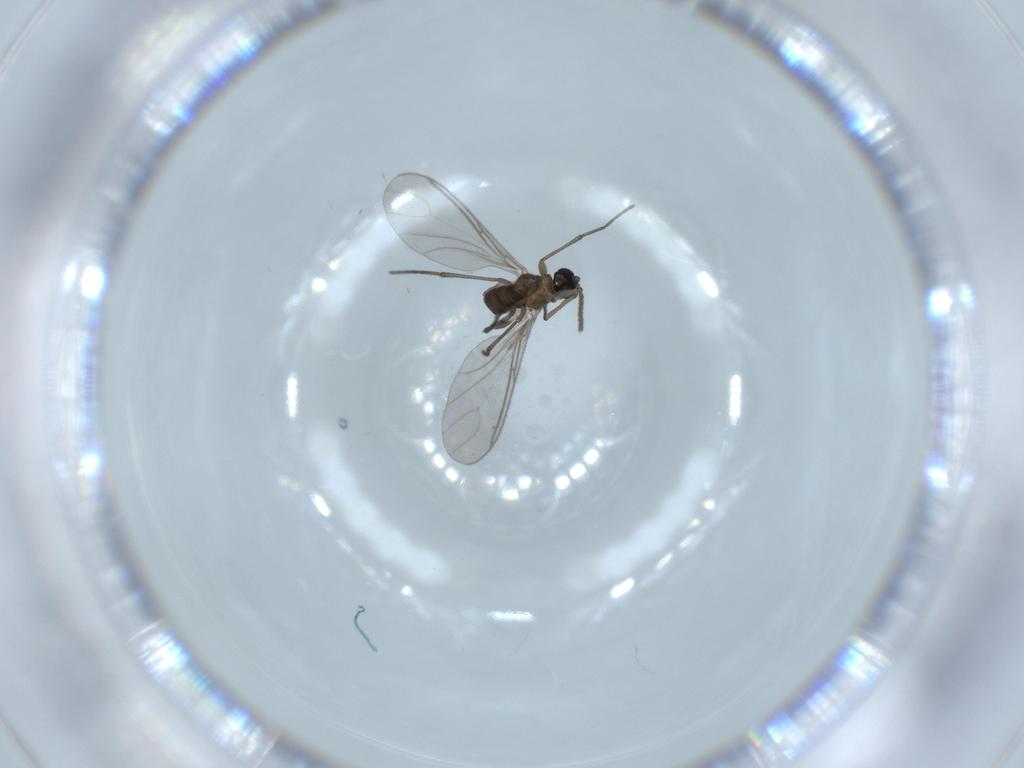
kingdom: Animalia
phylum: Arthropoda
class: Insecta
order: Diptera
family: Sciaridae
